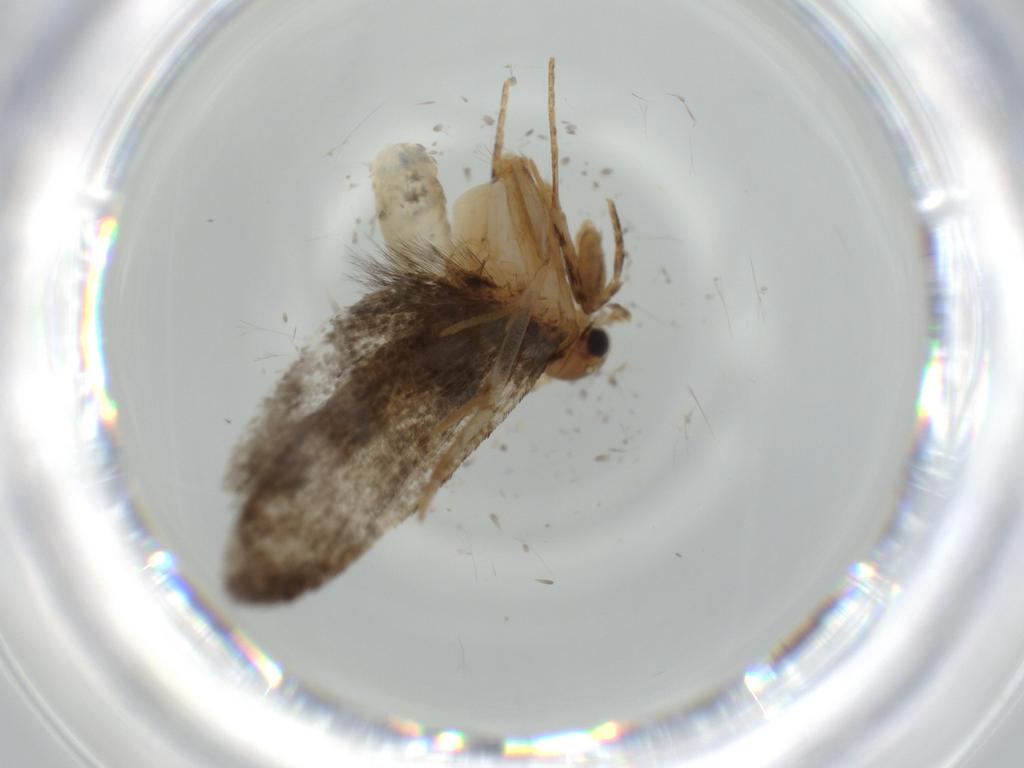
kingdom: Animalia
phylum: Arthropoda
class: Insecta
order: Lepidoptera
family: Tineidae
